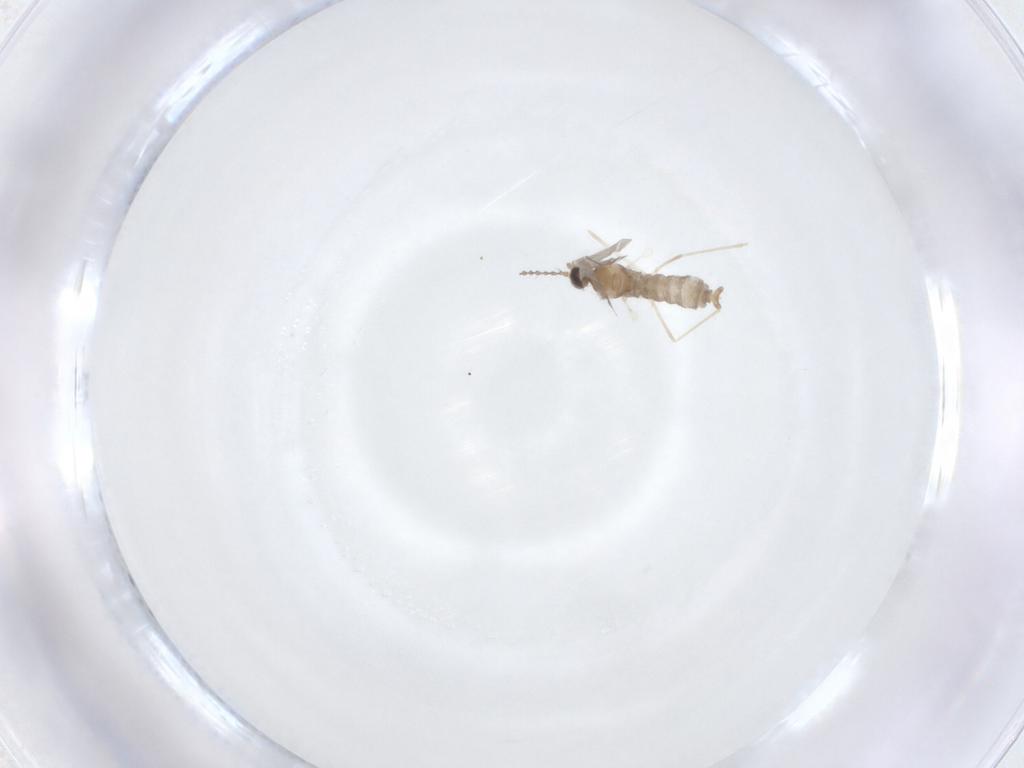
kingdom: Animalia
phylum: Arthropoda
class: Insecta
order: Diptera
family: Cecidomyiidae
